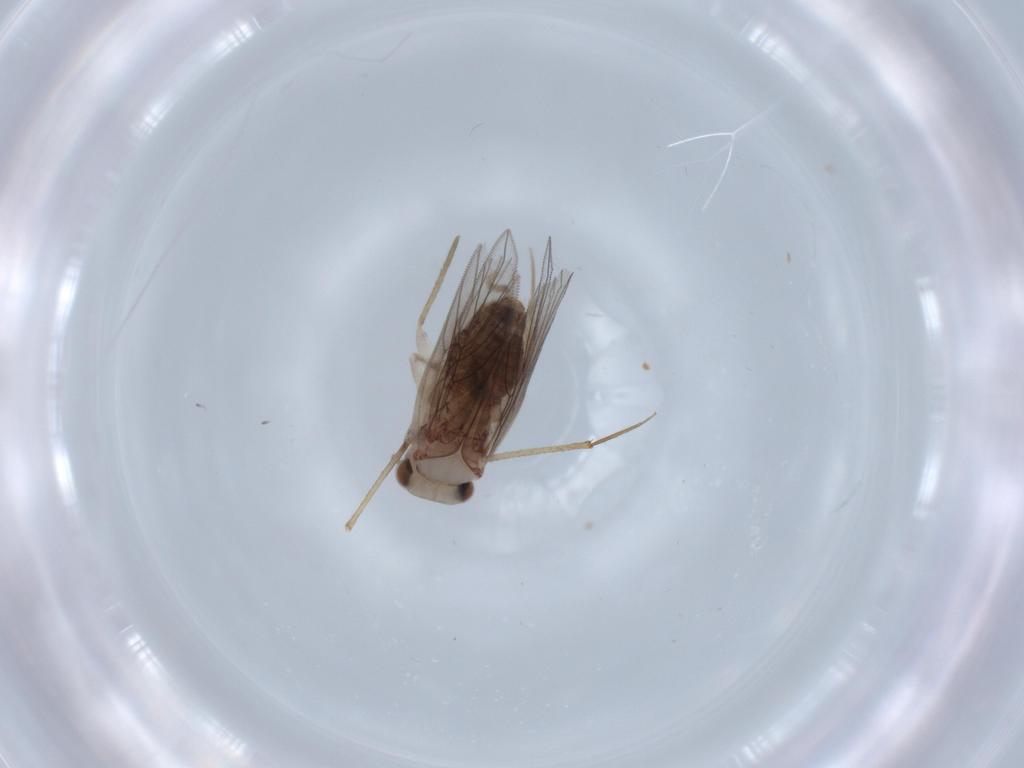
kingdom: Animalia
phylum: Arthropoda
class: Insecta
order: Psocodea
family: Lepidopsocidae
